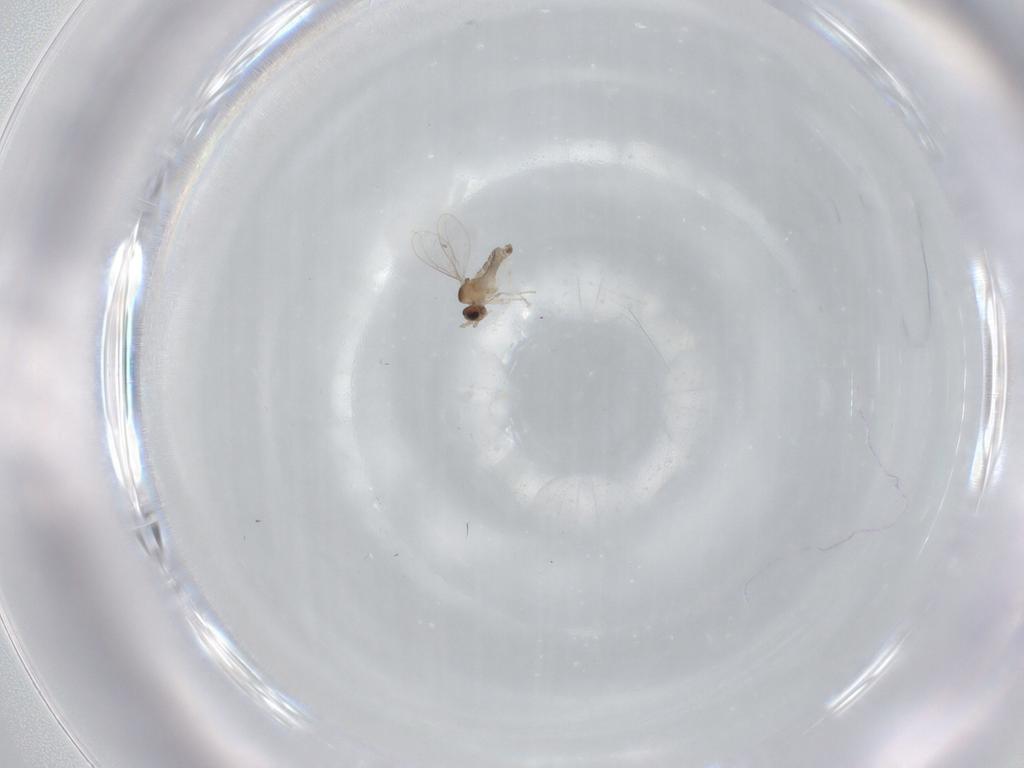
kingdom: Animalia
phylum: Arthropoda
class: Insecta
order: Diptera
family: Cecidomyiidae
